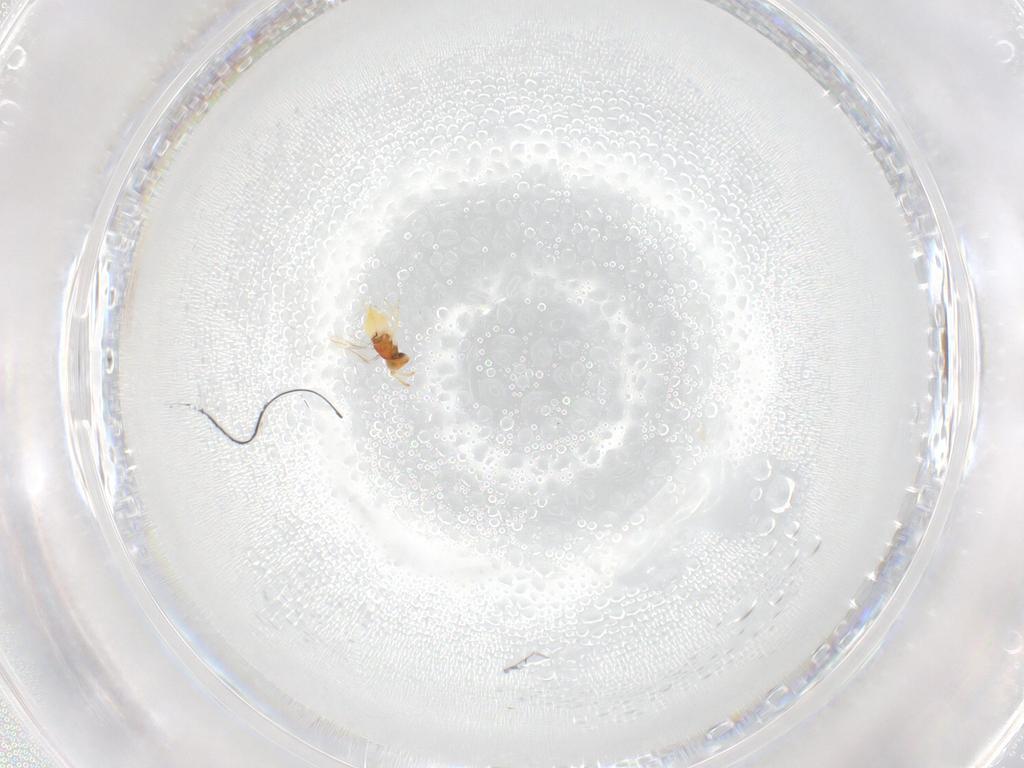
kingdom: Animalia
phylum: Arthropoda
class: Insecta
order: Hymenoptera
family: Aphelinidae
